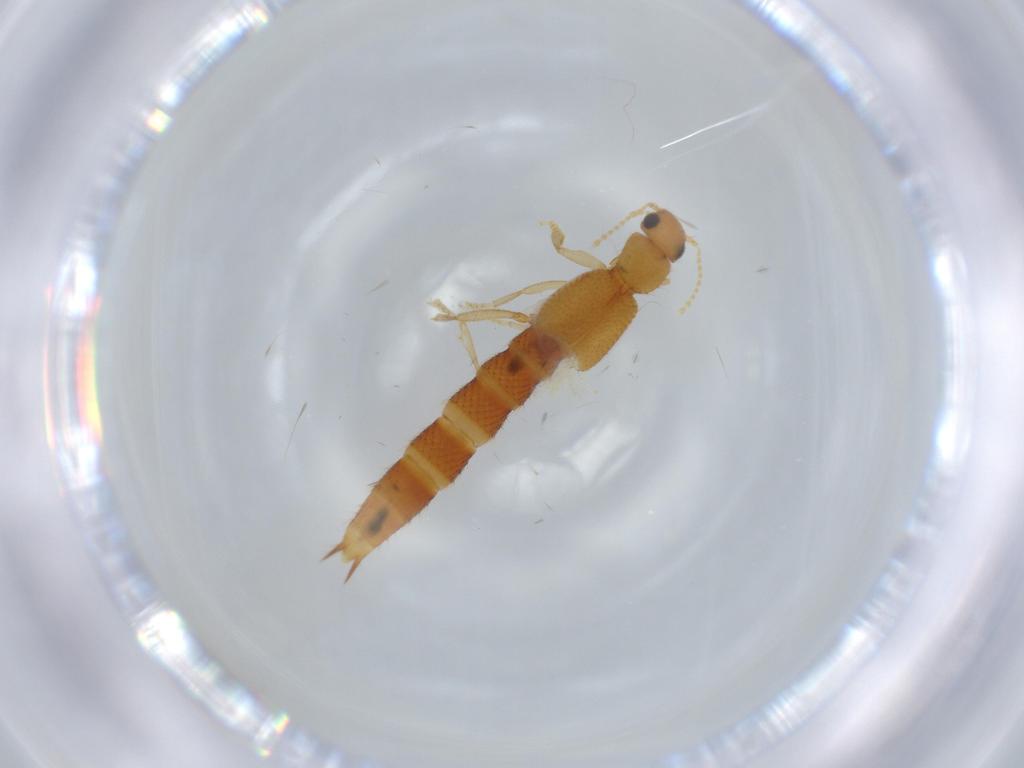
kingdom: Animalia
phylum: Arthropoda
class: Insecta
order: Coleoptera
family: Staphylinidae
